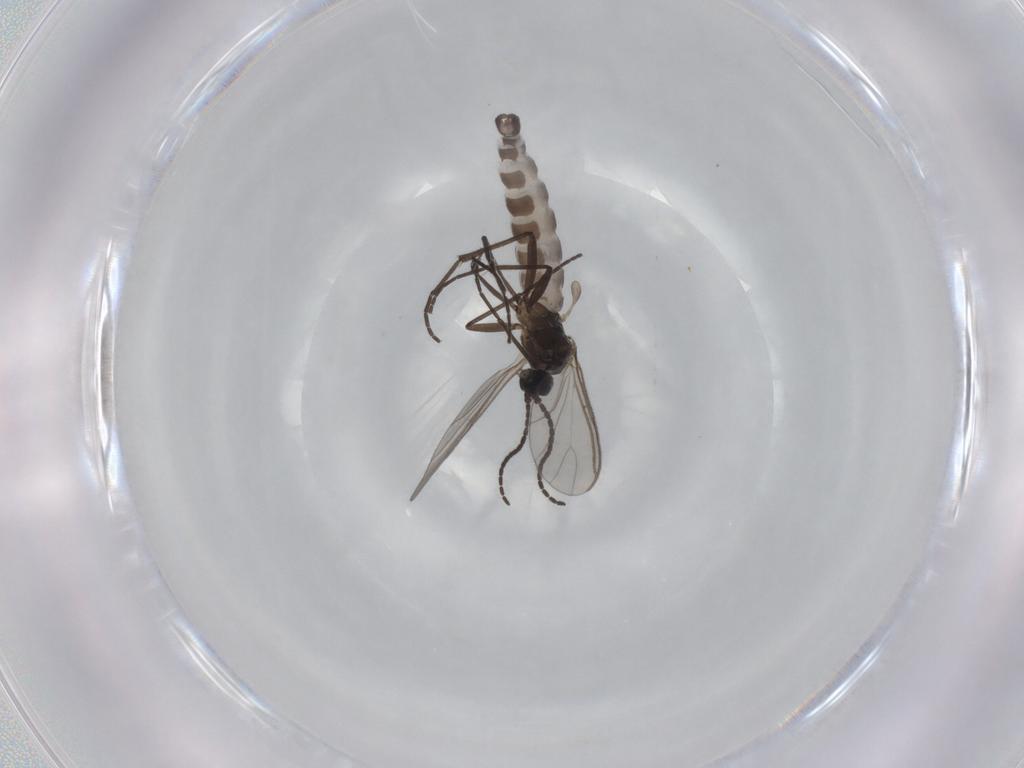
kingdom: Animalia
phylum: Arthropoda
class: Insecta
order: Diptera
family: Sciaridae
